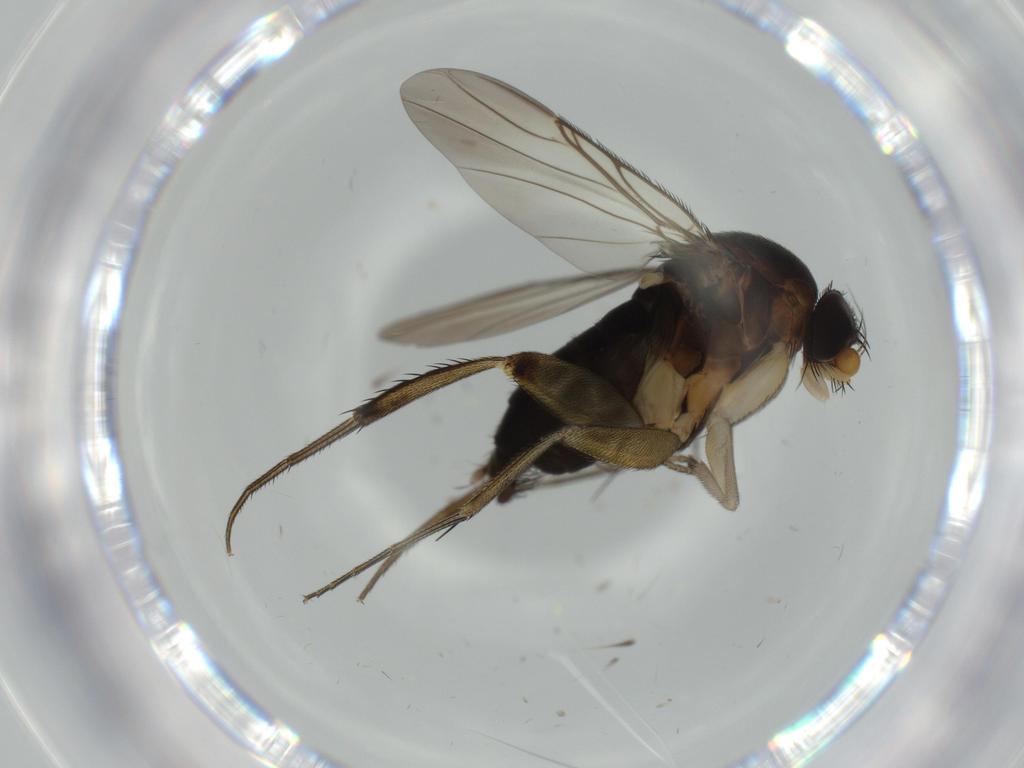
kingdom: Animalia
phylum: Arthropoda
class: Insecta
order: Diptera
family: Phoridae
